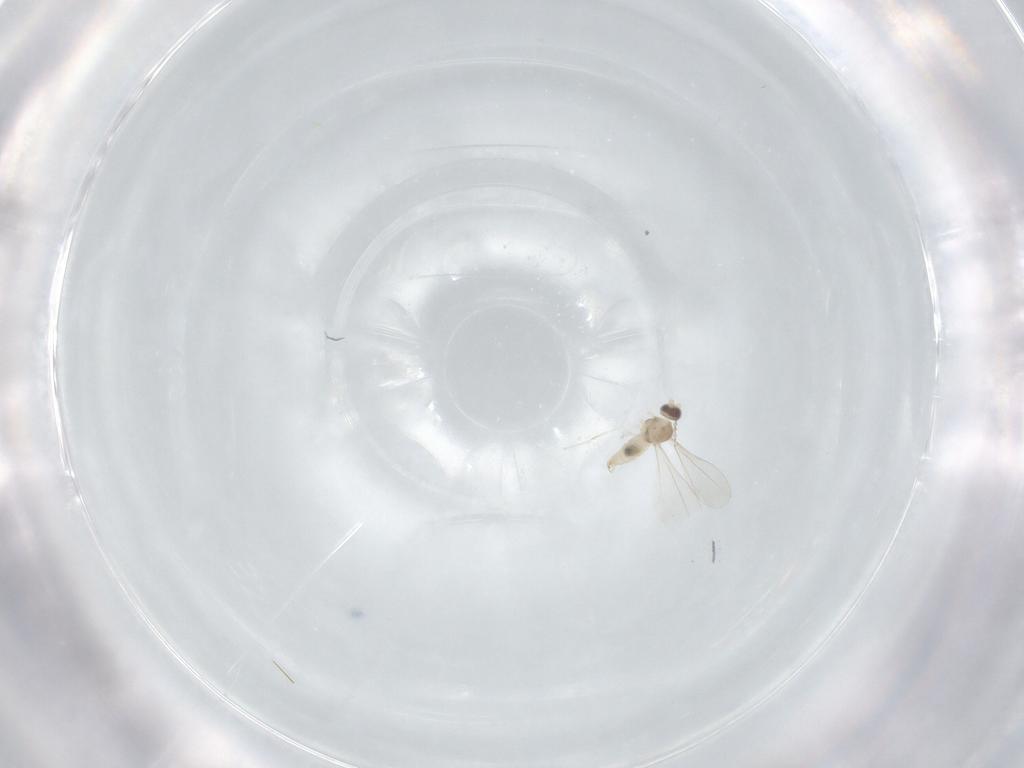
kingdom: Animalia
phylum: Arthropoda
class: Insecta
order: Diptera
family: Cecidomyiidae
